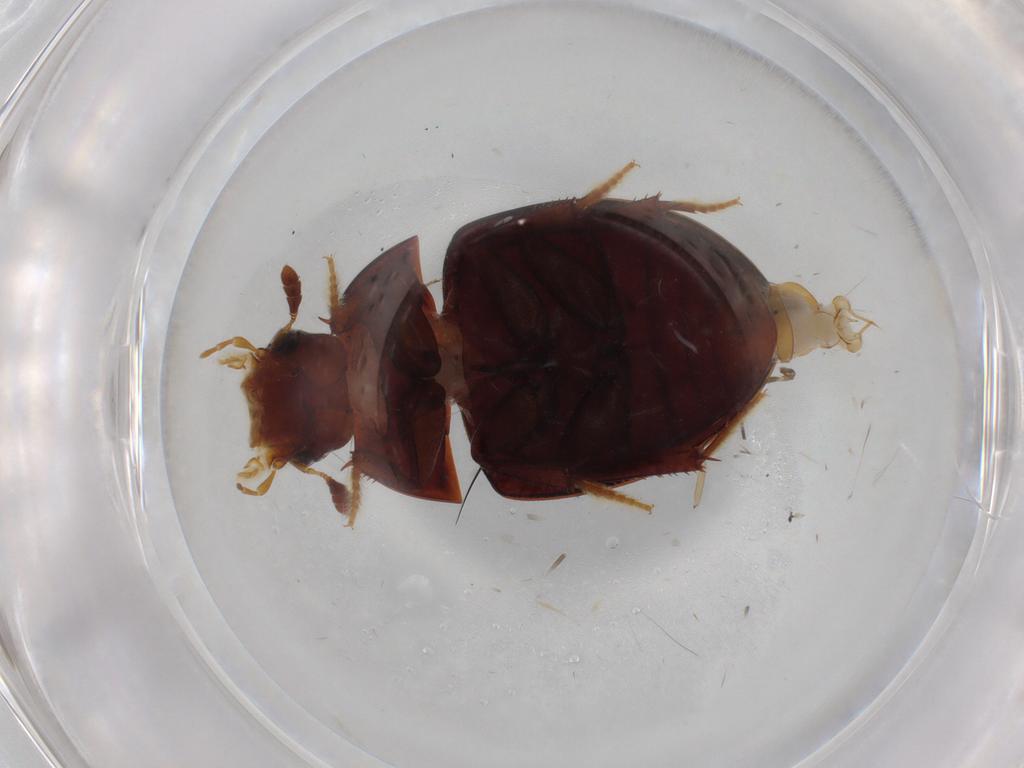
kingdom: Animalia
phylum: Arthropoda
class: Insecta
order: Coleoptera
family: Hydrophilidae
